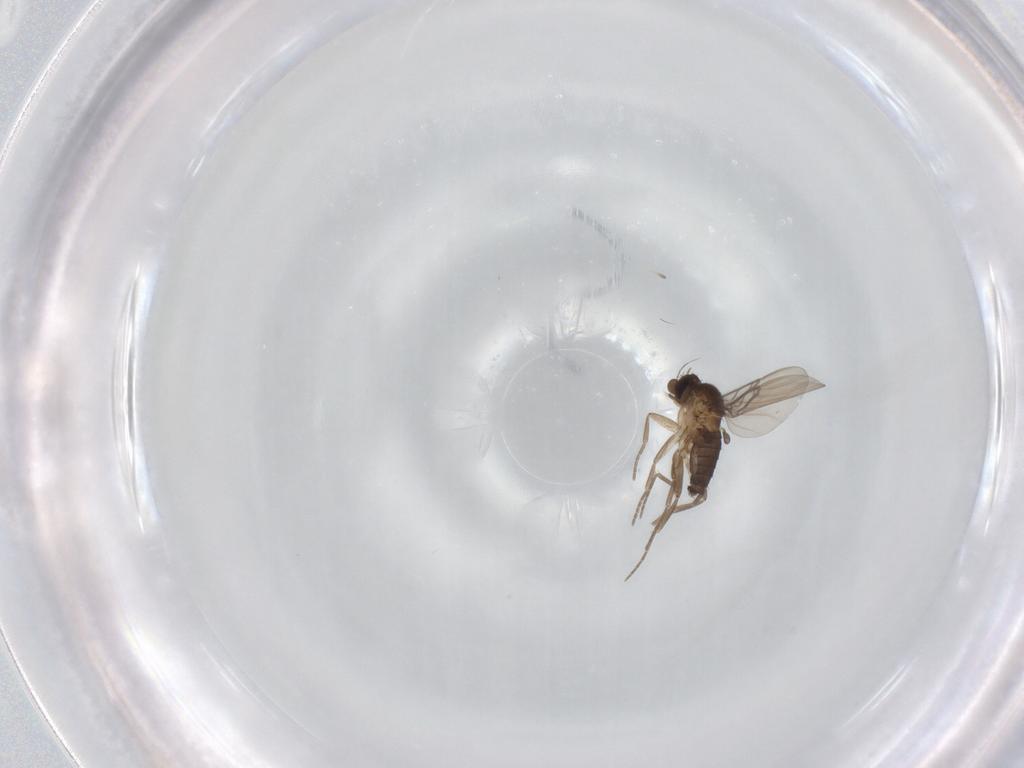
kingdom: Animalia
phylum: Arthropoda
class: Insecta
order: Diptera
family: Phoridae
